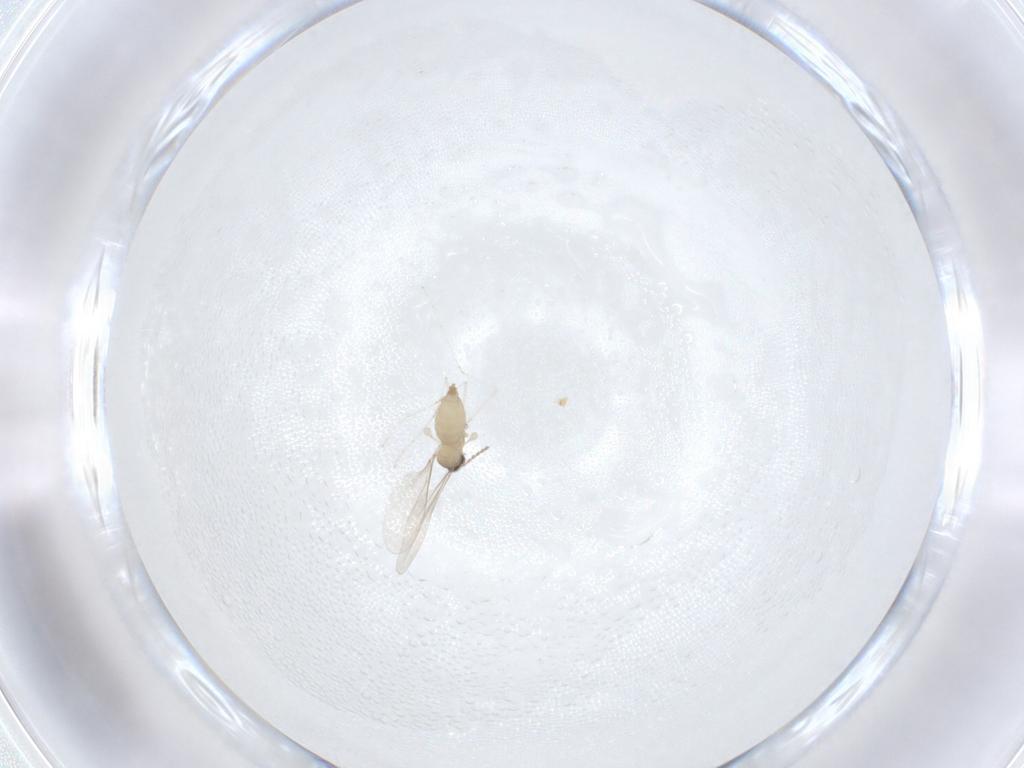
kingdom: Animalia
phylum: Arthropoda
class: Insecta
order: Diptera
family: Cecidomyiidae
